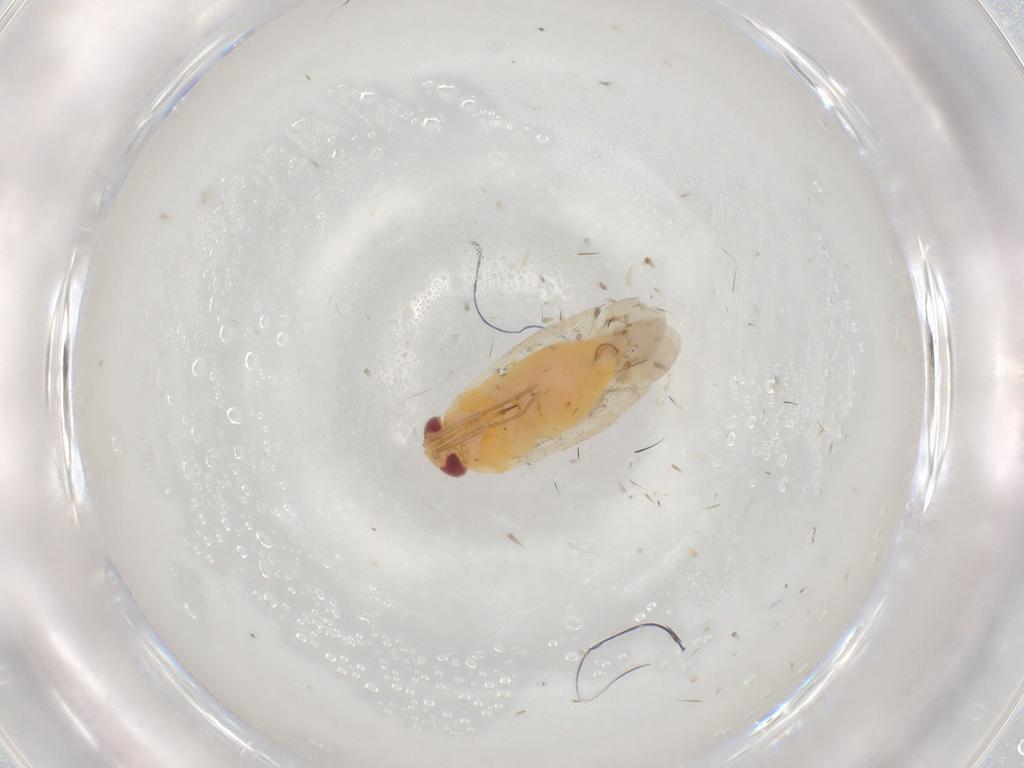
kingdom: Animalia
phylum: Arthropoda
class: Insecta
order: Hemiptera
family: Miridae
